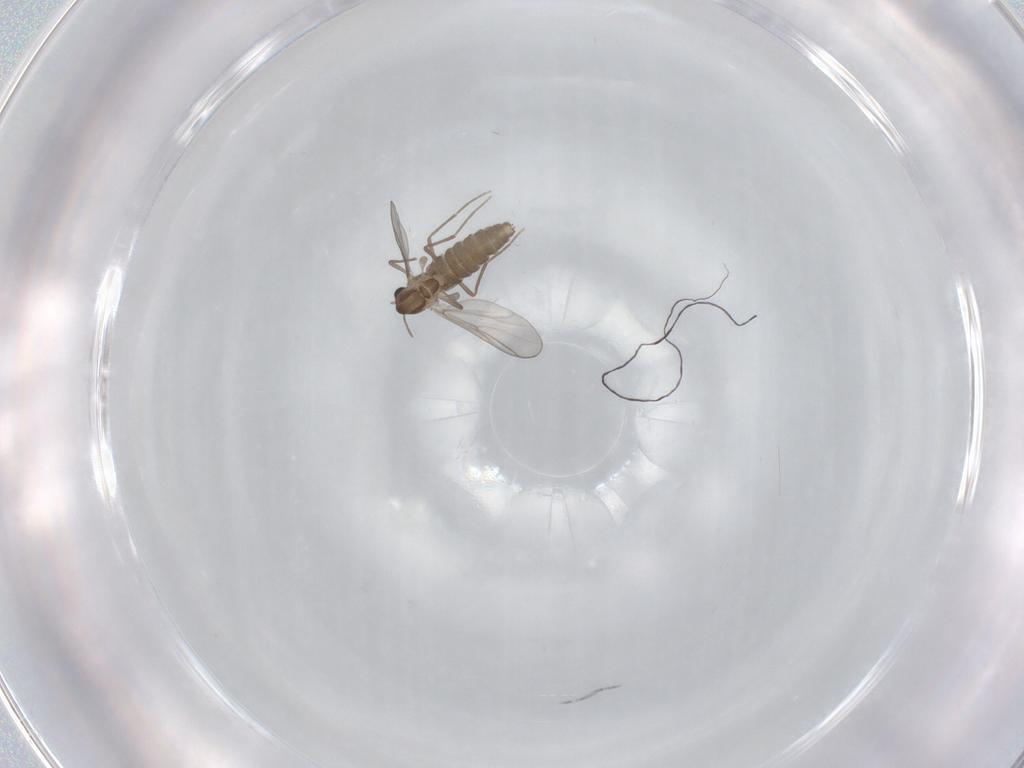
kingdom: Animalia
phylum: Arthropoda
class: Insecta
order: Diptera
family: Chironomidae
